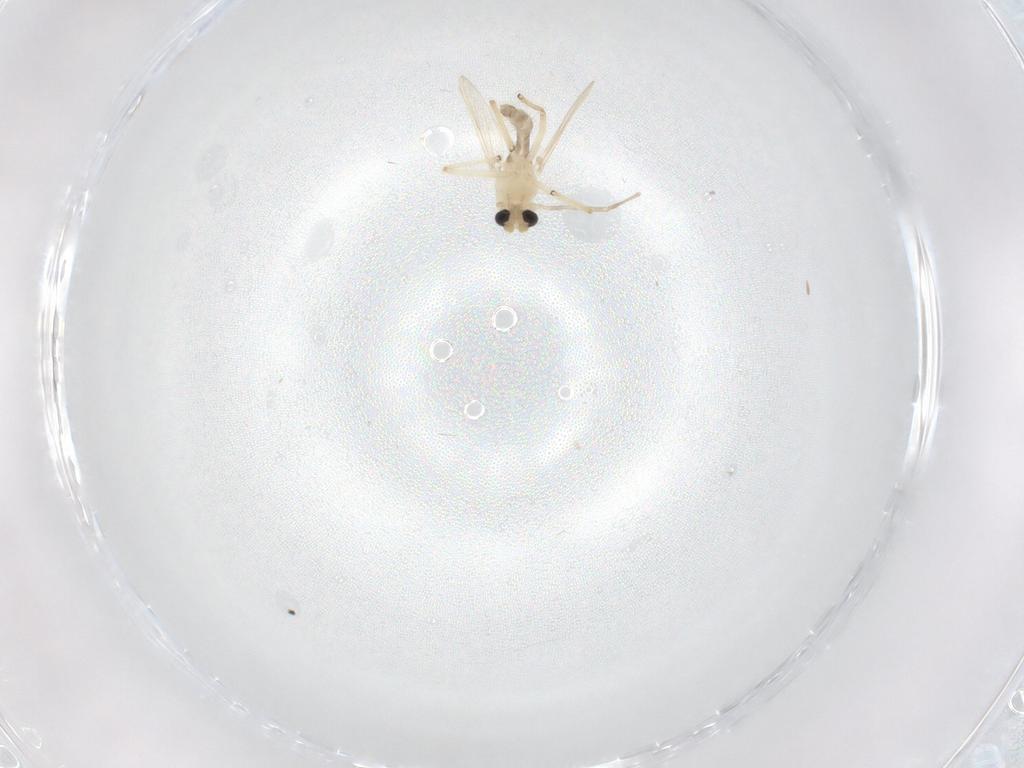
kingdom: Animalia
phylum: Arthropoda
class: Insecta
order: Diptera
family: Chironomidae
